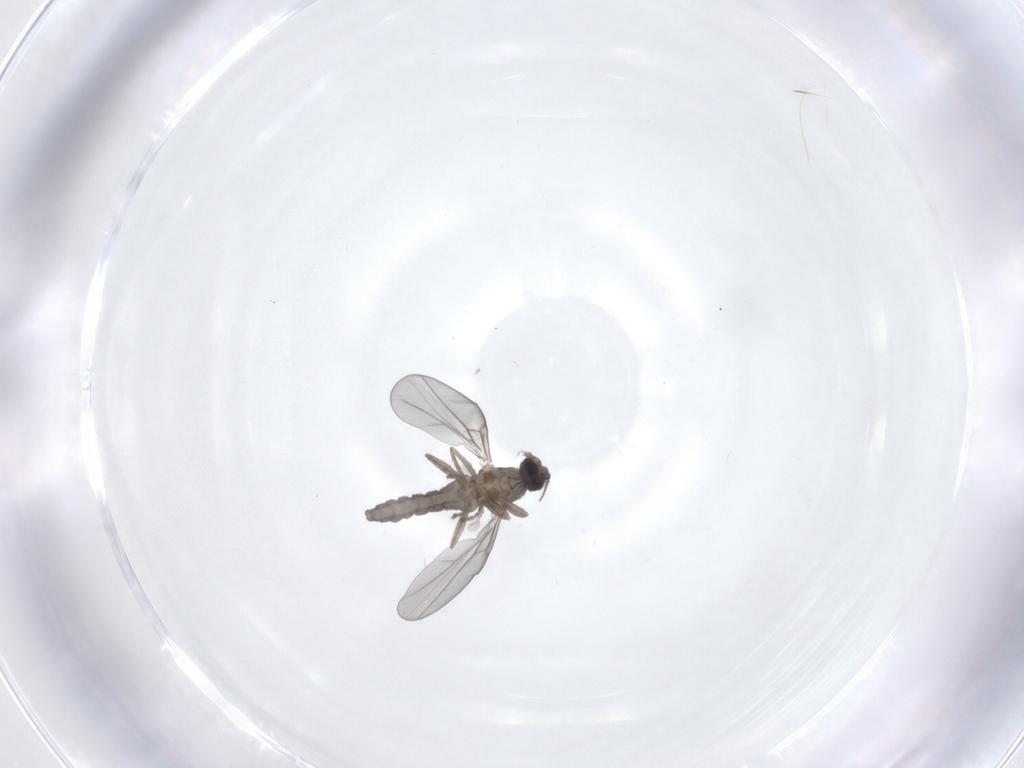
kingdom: Animalia
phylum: Arthropoda
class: Insecta
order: Diptera
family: Cecidomyiidae
